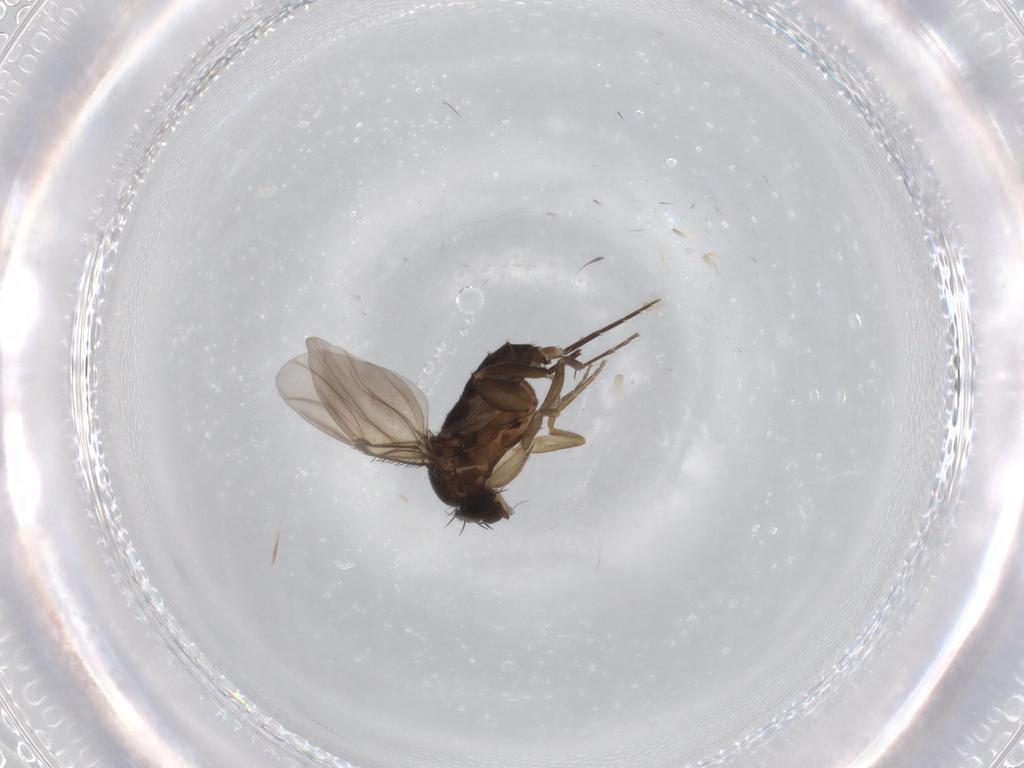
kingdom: Animalia
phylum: Arthropoda
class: Insecta
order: Diptera
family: Phoridae
